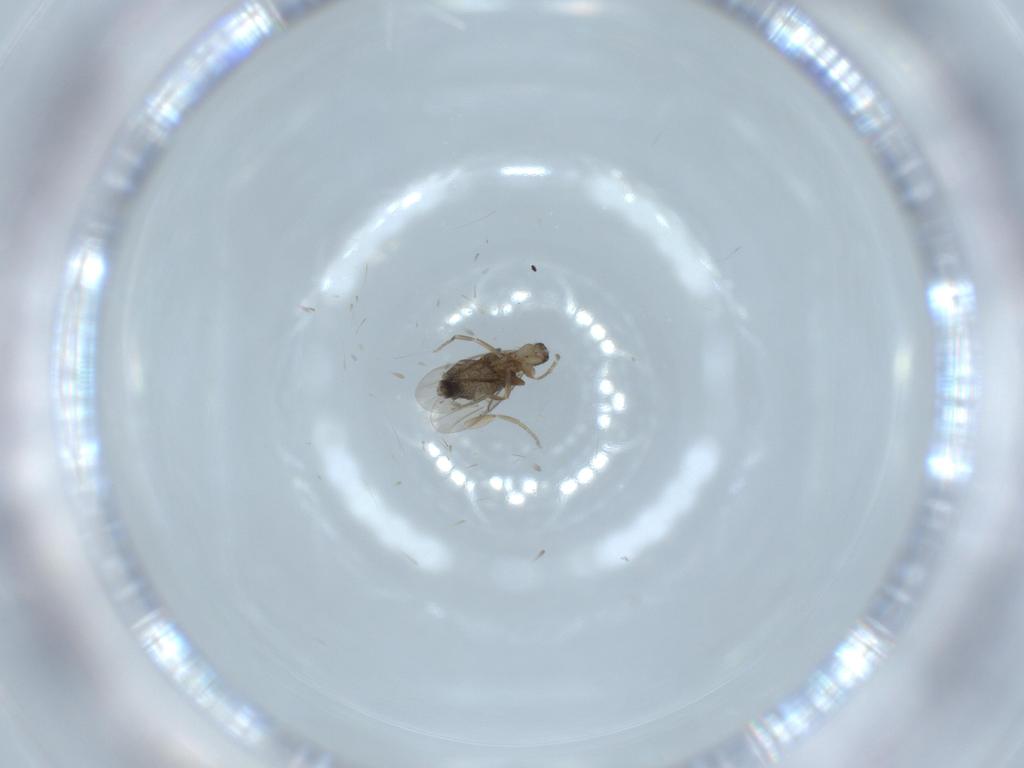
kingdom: Animalia
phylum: Arthropoda
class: Insecta
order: Diptera
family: Phoridae
